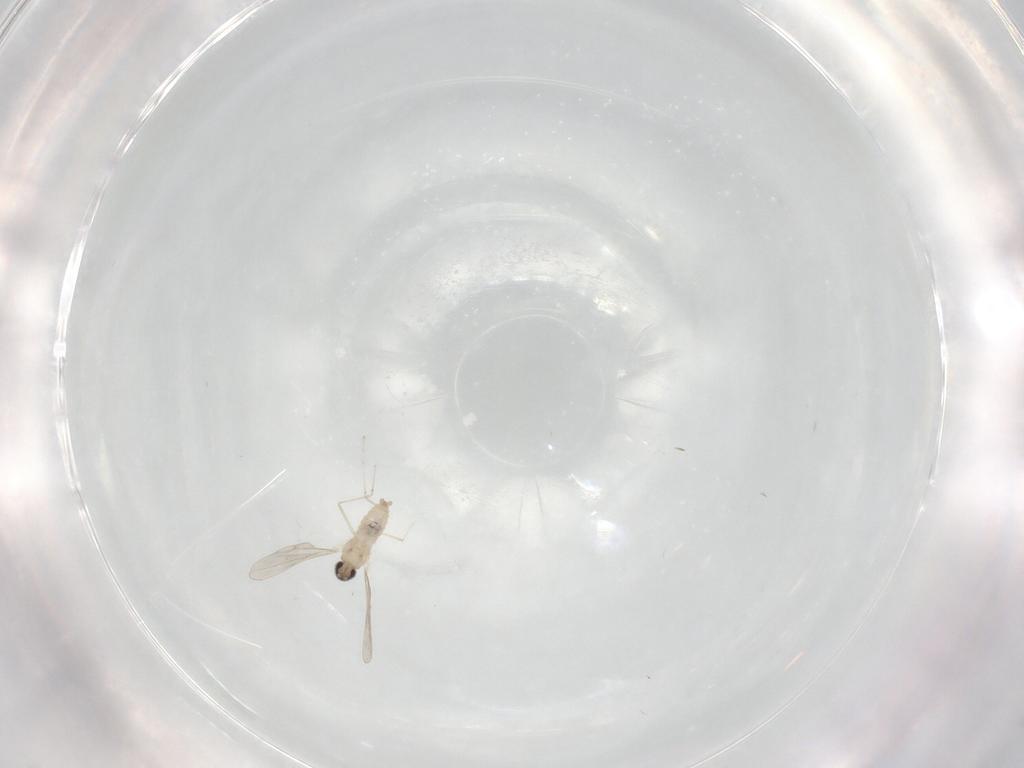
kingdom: Animalia
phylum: Arthropoda
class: Insecta
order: Diptera
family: Cecidomyiidae
